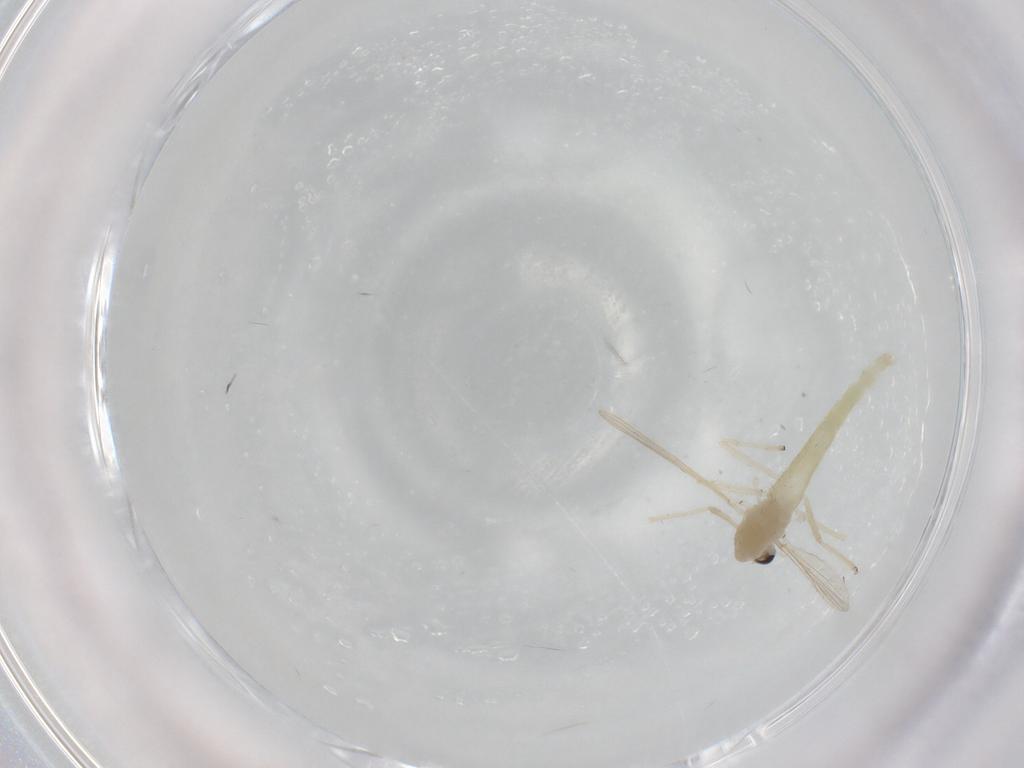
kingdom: Animalia
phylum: Arthropoda
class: Insecta
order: Diptera
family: Chironomidae
